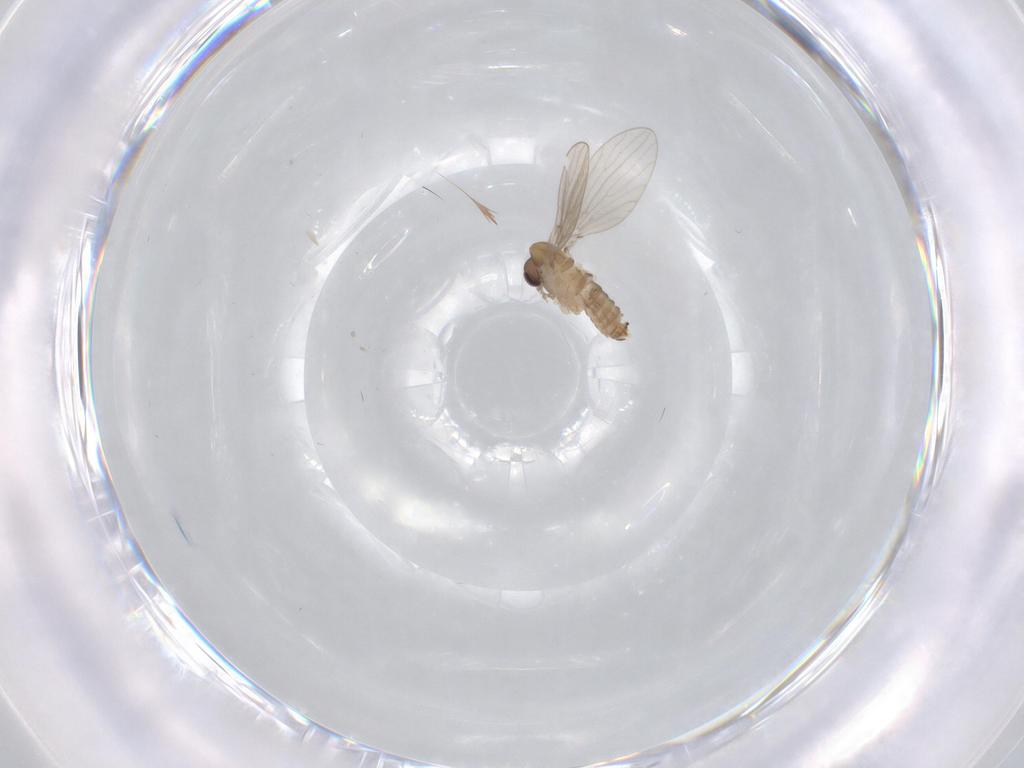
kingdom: Animalia
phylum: Arthropoda
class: Insecta
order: Diptera
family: Psychodidae
